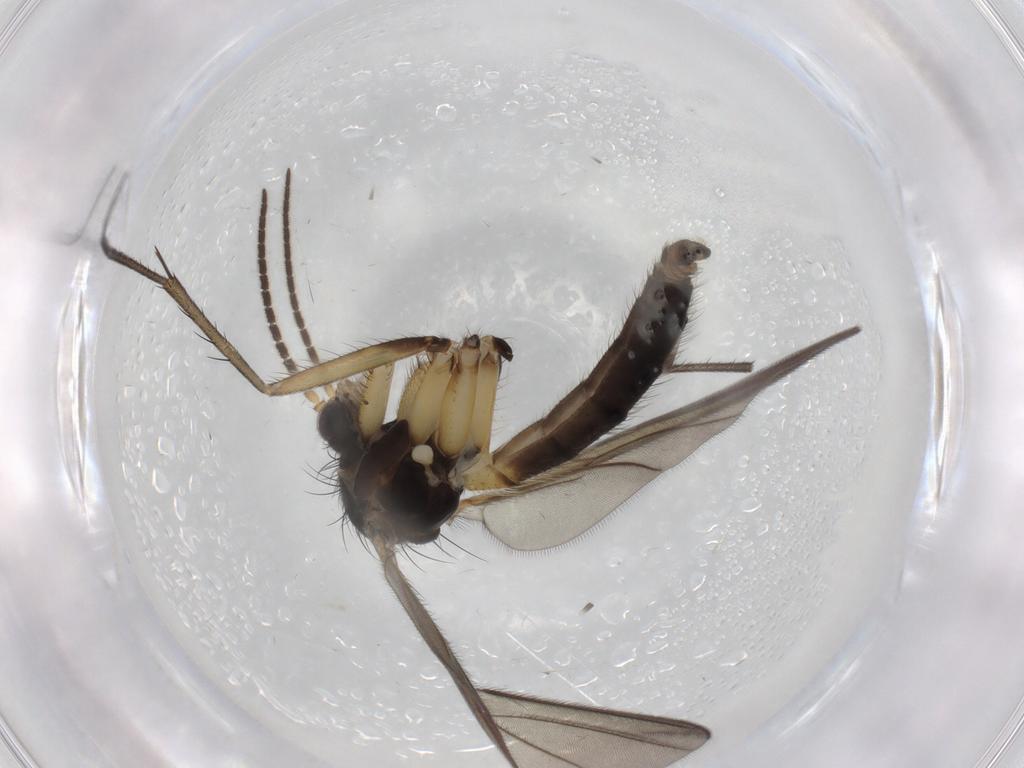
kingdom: Animalia
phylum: Arthropoda
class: Insecta
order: Diptera
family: Mycetophilidae
